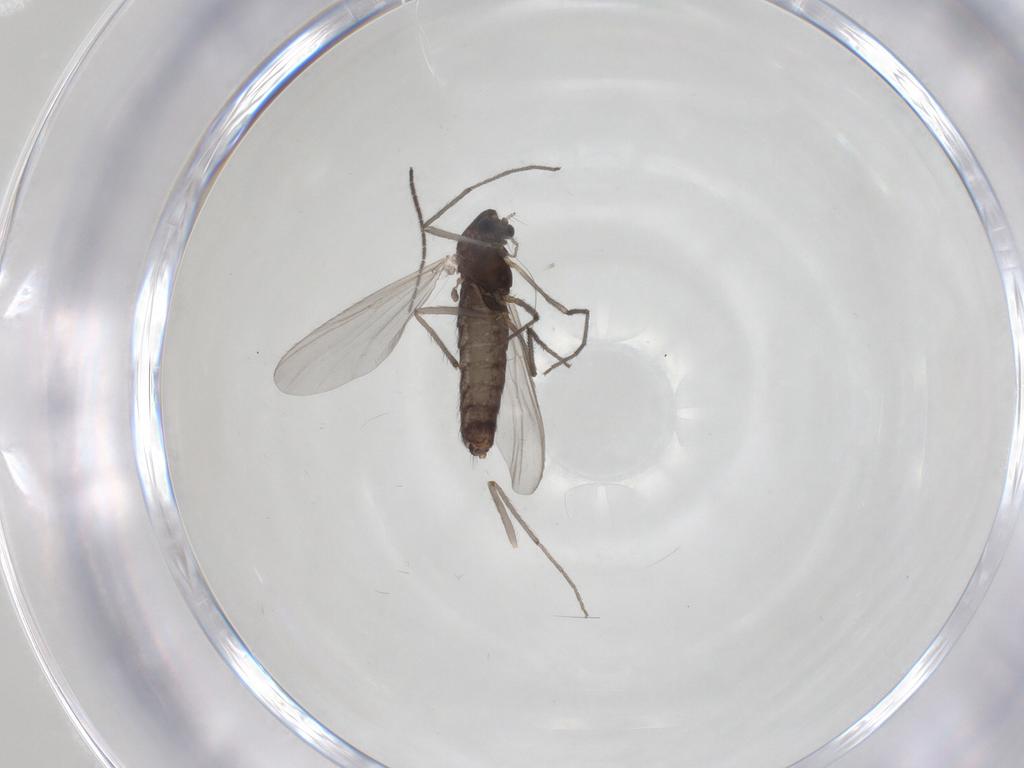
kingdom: Animalia
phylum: Arthropoda
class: Insecta
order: Diptera
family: Chironomidae
